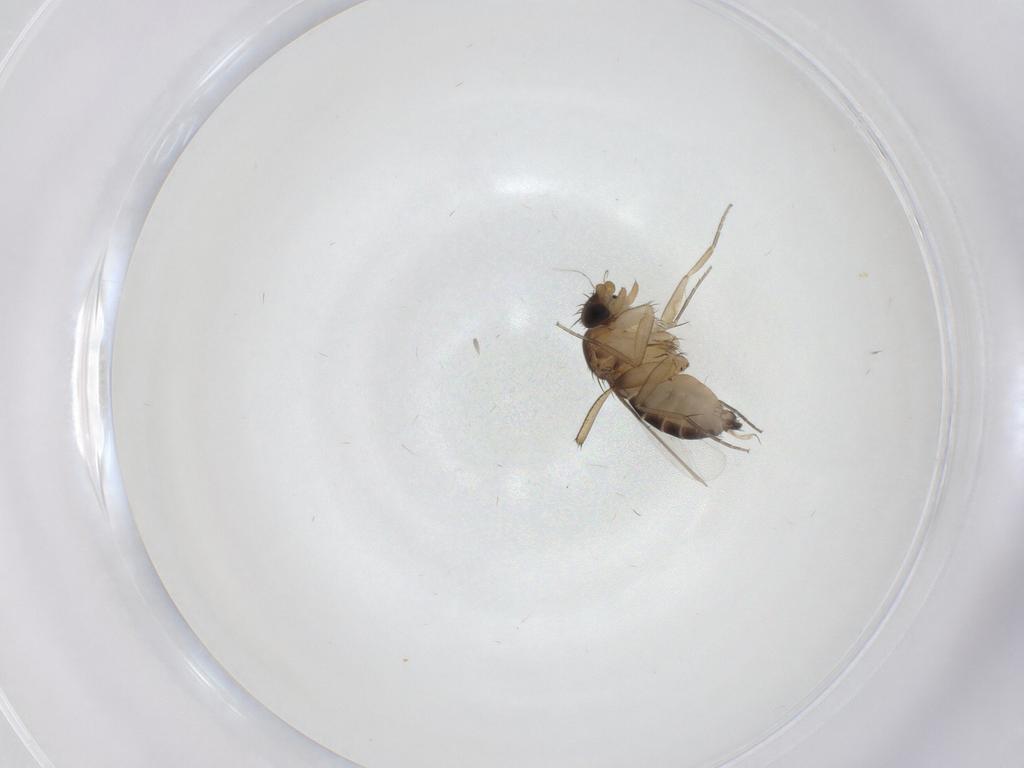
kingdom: Animalia
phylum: Arthropoda
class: Insecta
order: Diptera
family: Phoridae
